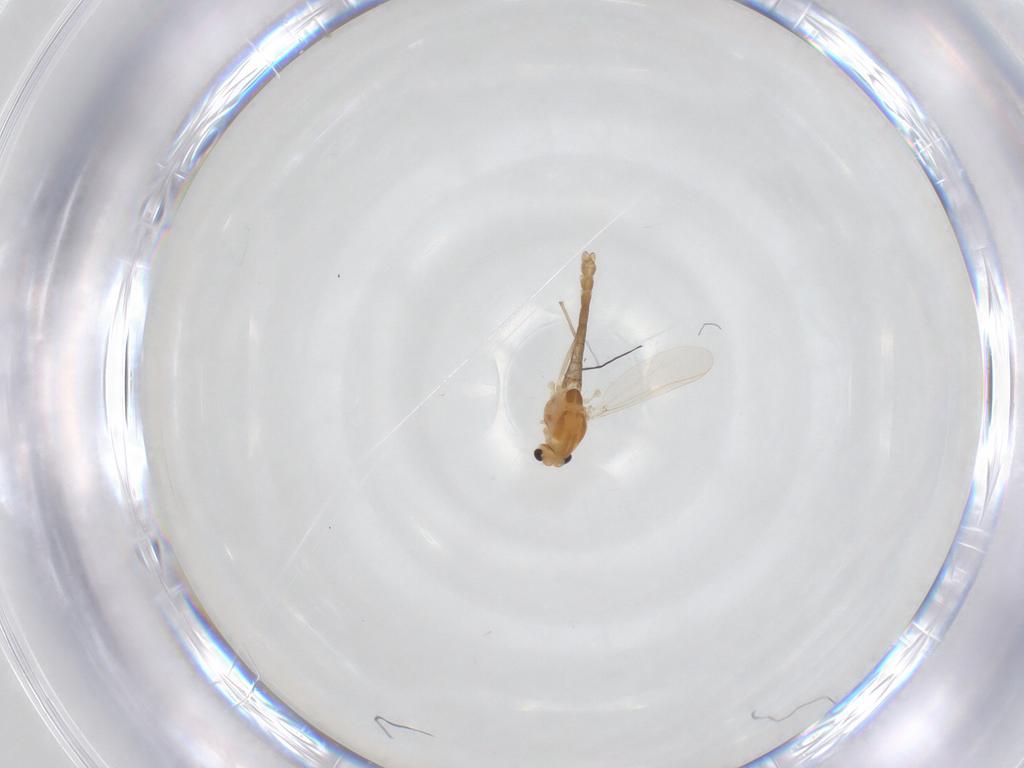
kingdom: Animalia
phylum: Arthropoda
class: Insecta
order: Diptera
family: Chironomidae
